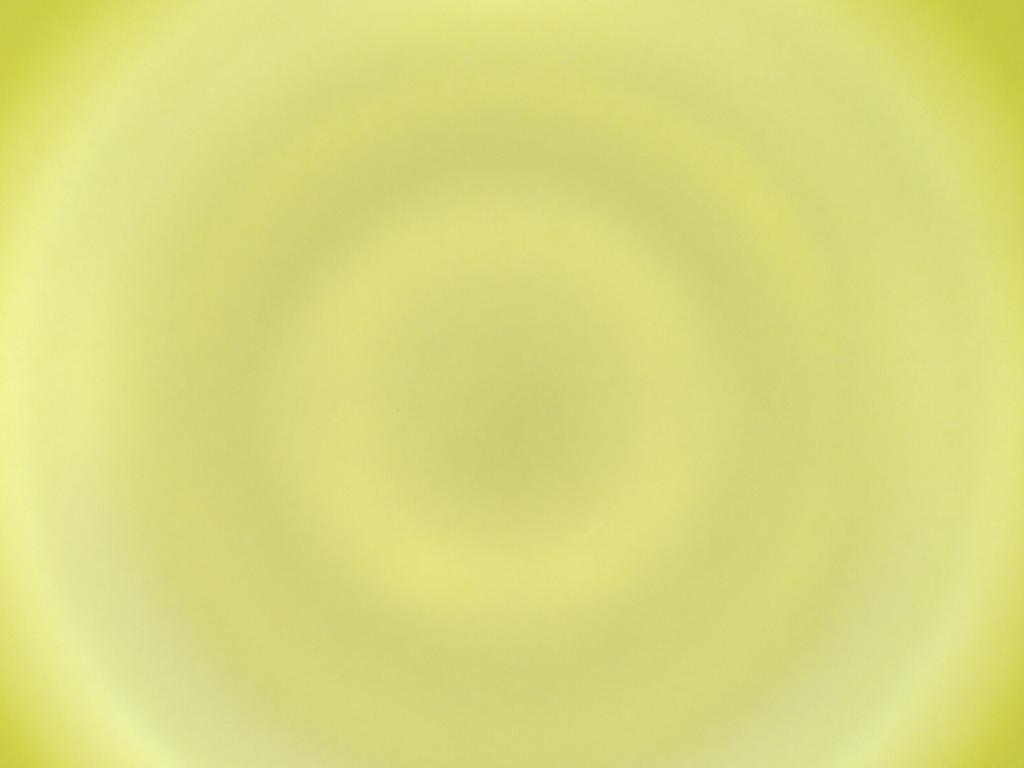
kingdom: Animalia
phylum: Arthropoda
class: Insecta
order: Diptera
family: Cecidomyiidae
